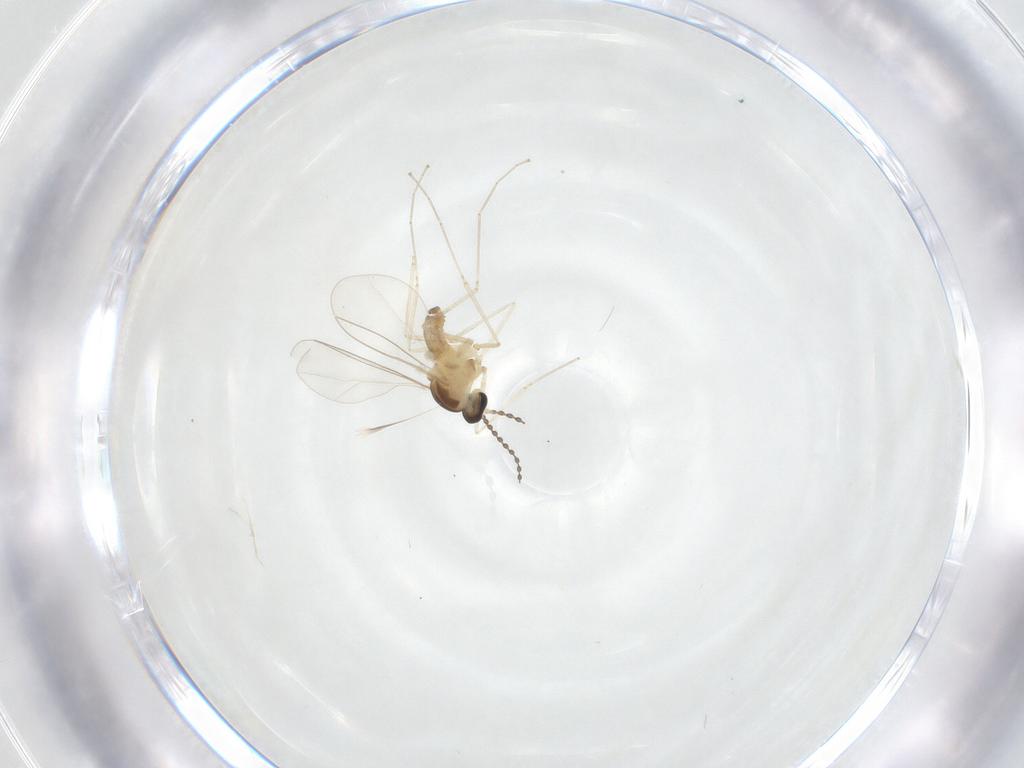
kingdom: Animalia
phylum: Arthropoda
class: Insecta
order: Diptera
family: Cecidomyiidae
